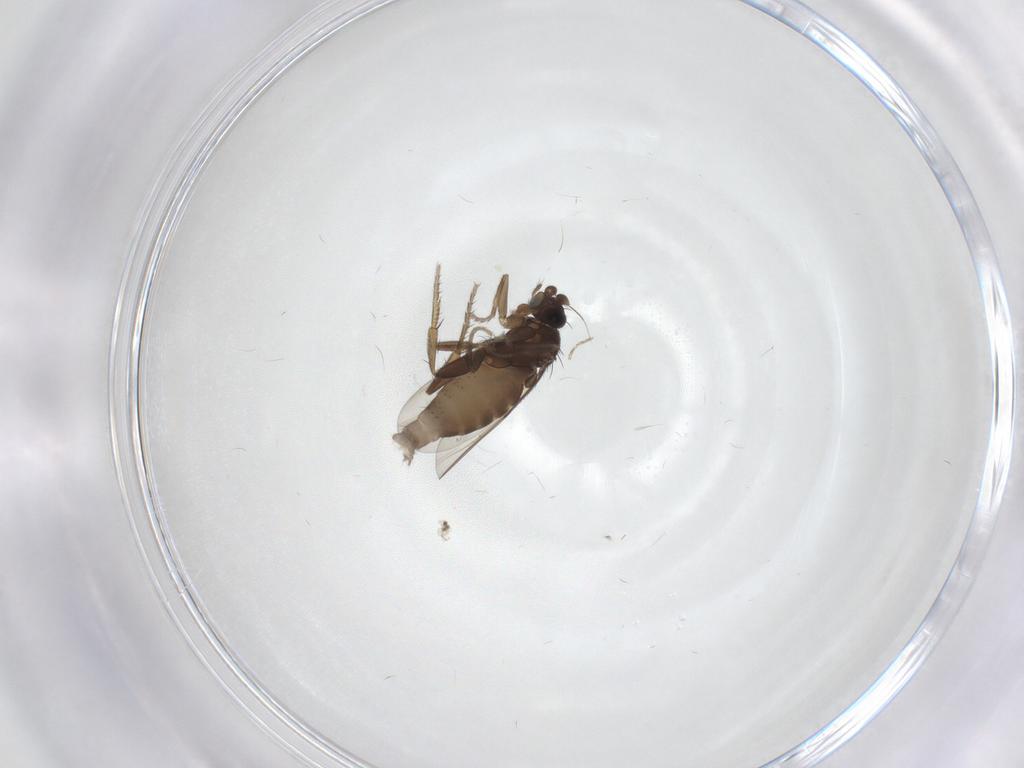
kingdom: Animalia
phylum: Arthropoda
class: Insecta
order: Diptera
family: Phoridae
